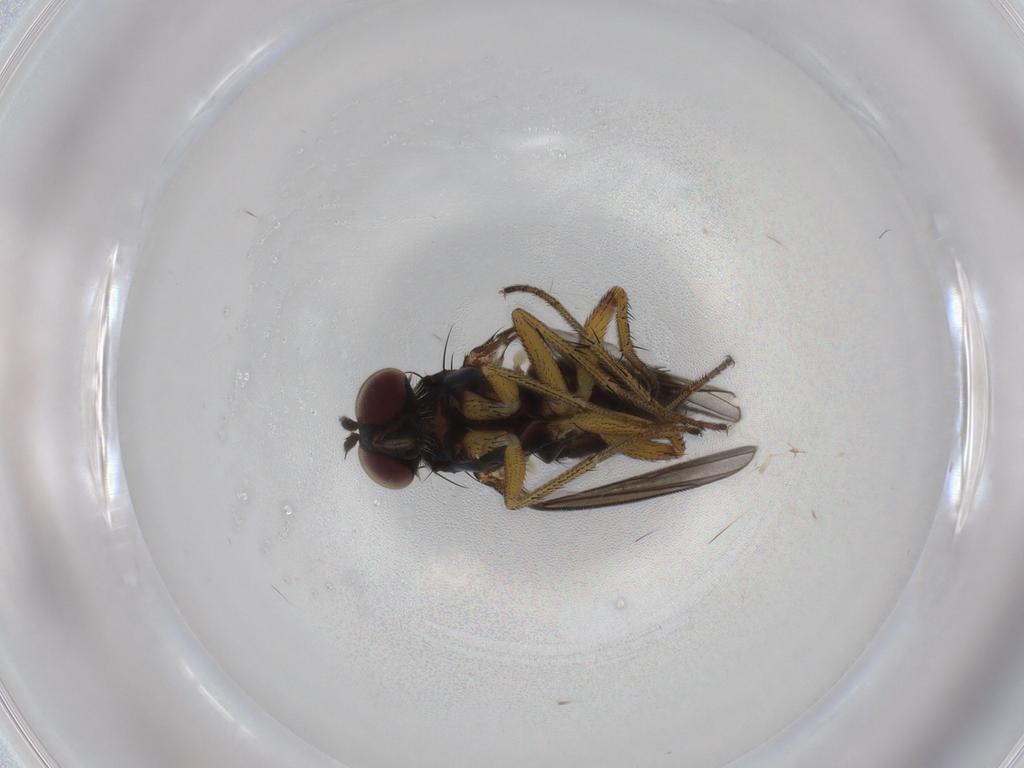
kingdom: Animalia
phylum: Arthropoda
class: Insecta
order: Diptera
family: Dolichopodidae
